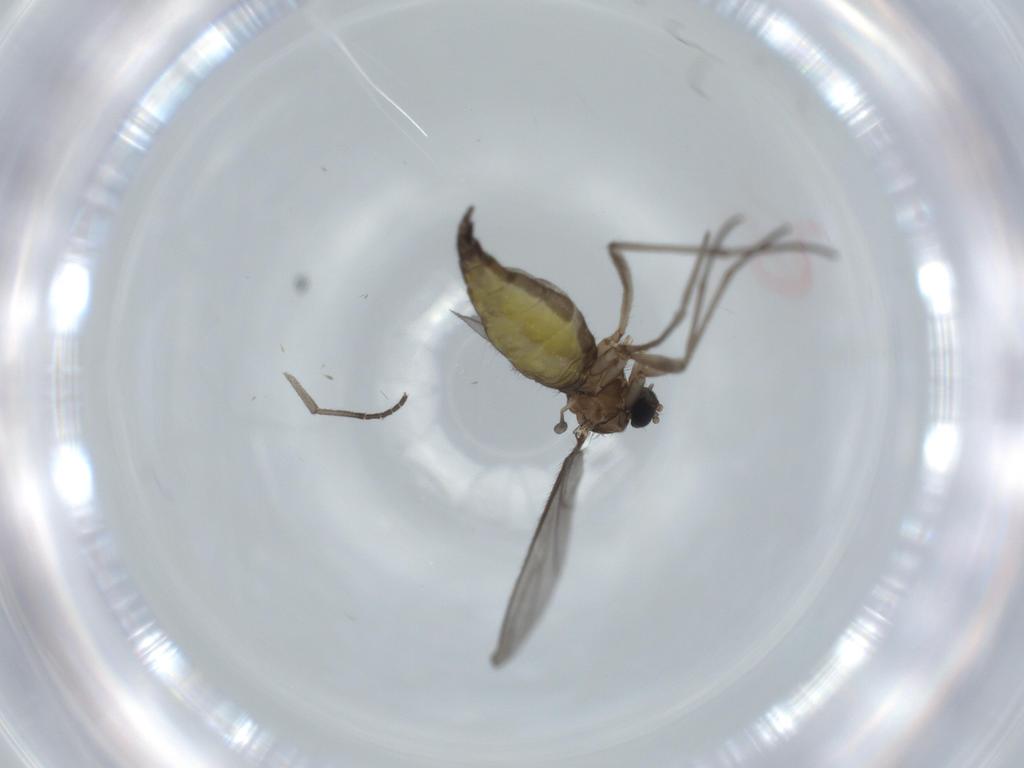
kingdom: Animalia
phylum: Arthropoda
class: Insecta
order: Diptera
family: Sciaridae
